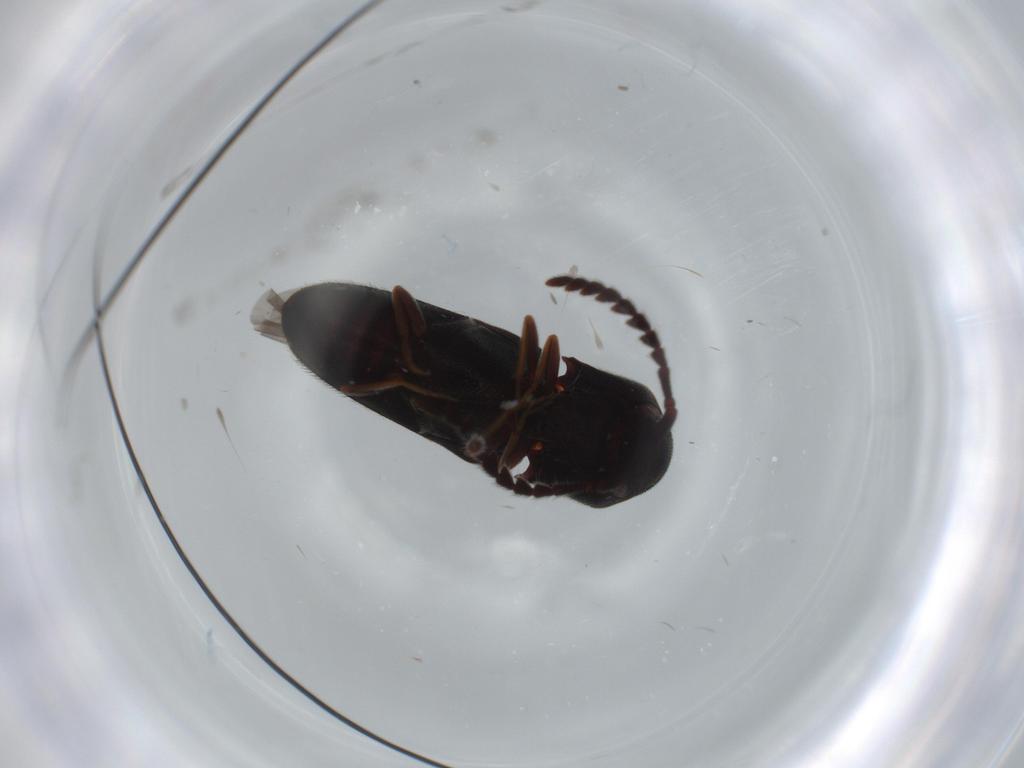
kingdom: Animalia
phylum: Arthropoda
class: Insecta
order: Coleoptera
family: Eucnemidae
